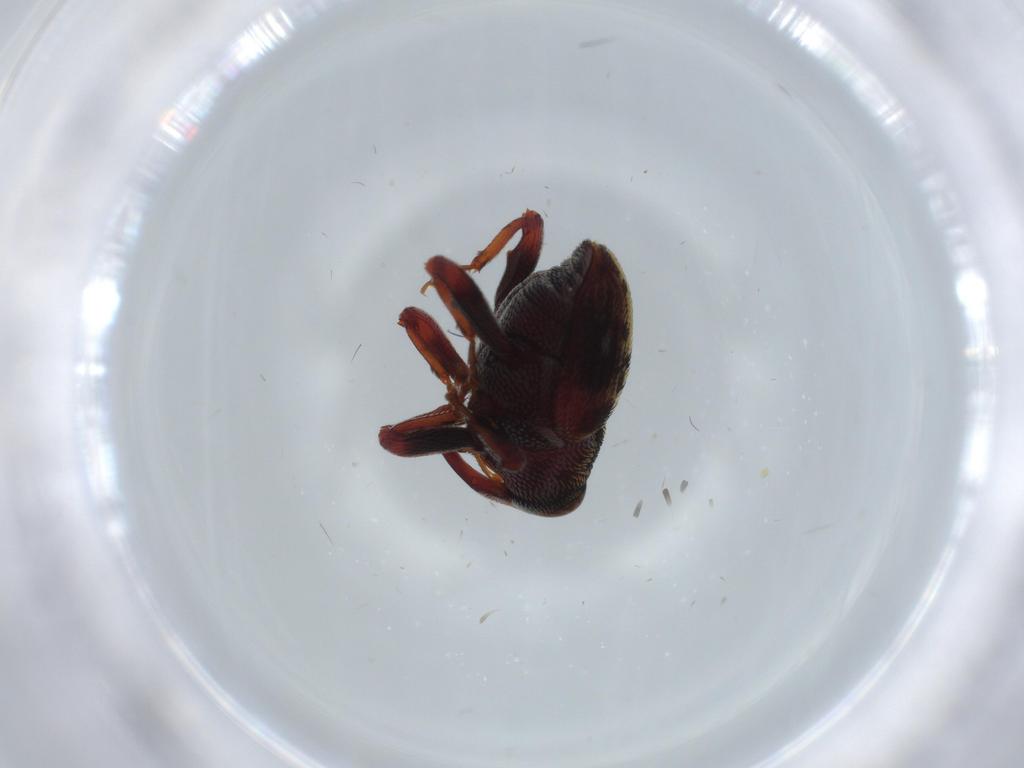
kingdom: Animalia
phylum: Arthropoda
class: Insecta
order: Coleoptera
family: Curculionidae
